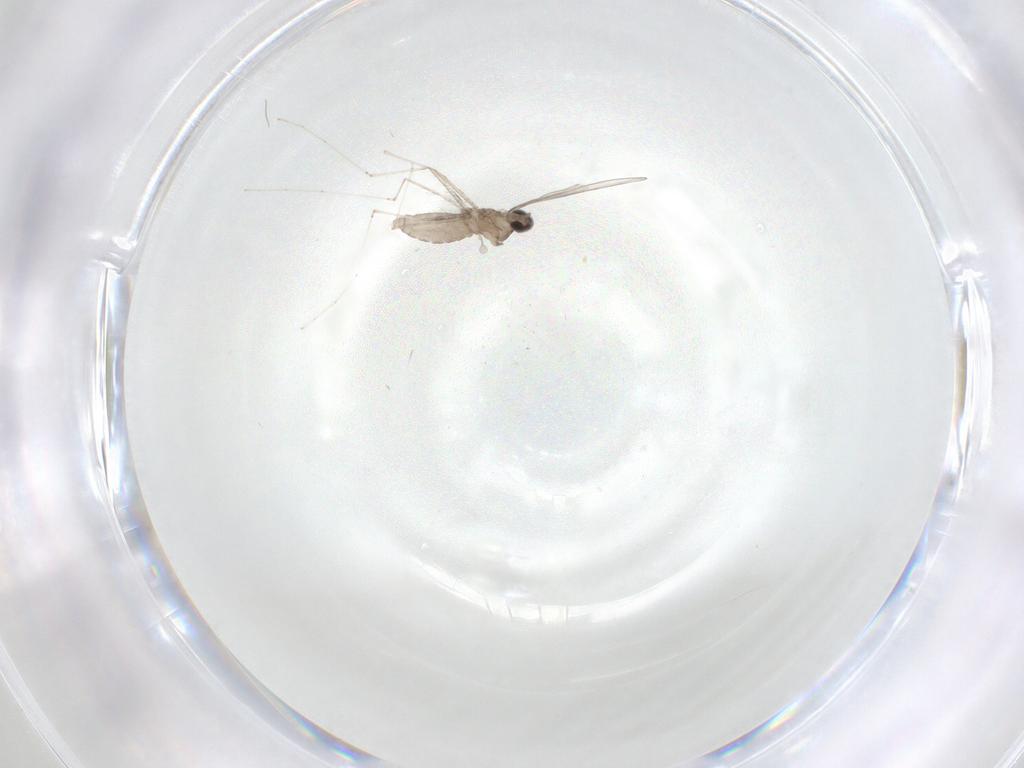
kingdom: Animalia
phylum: Arthropoda
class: Insecta
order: Diptera
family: Cecidomyiidae
